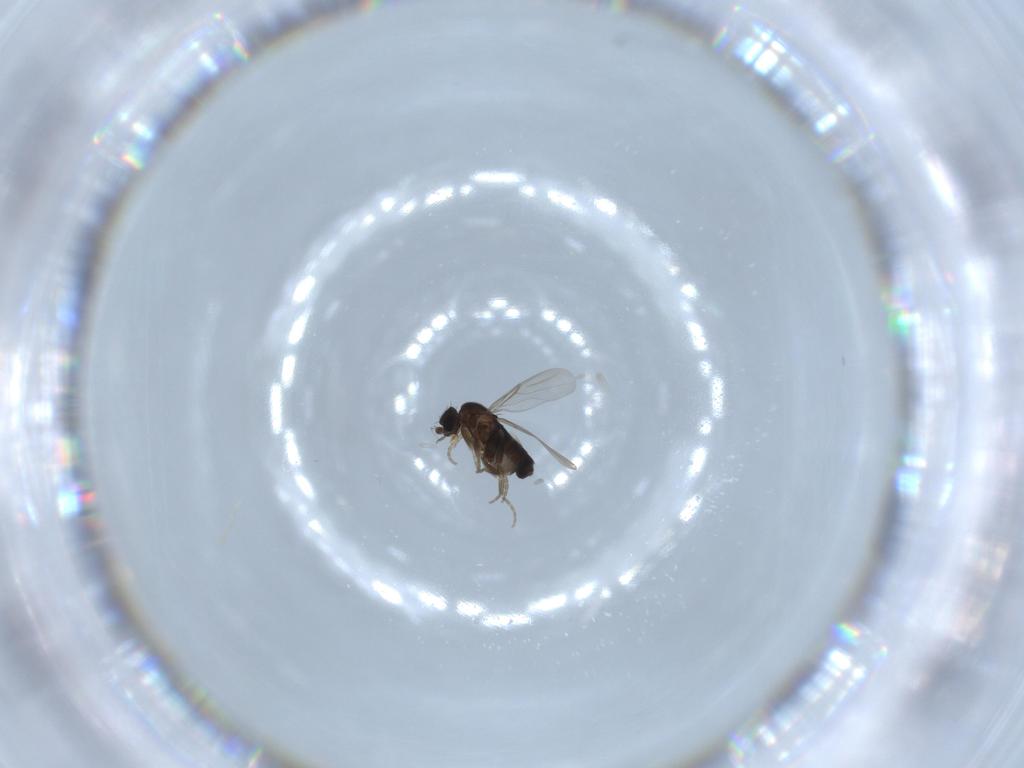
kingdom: Animalia
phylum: Arthropoda
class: Insecta
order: Diptera
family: Phoridae
